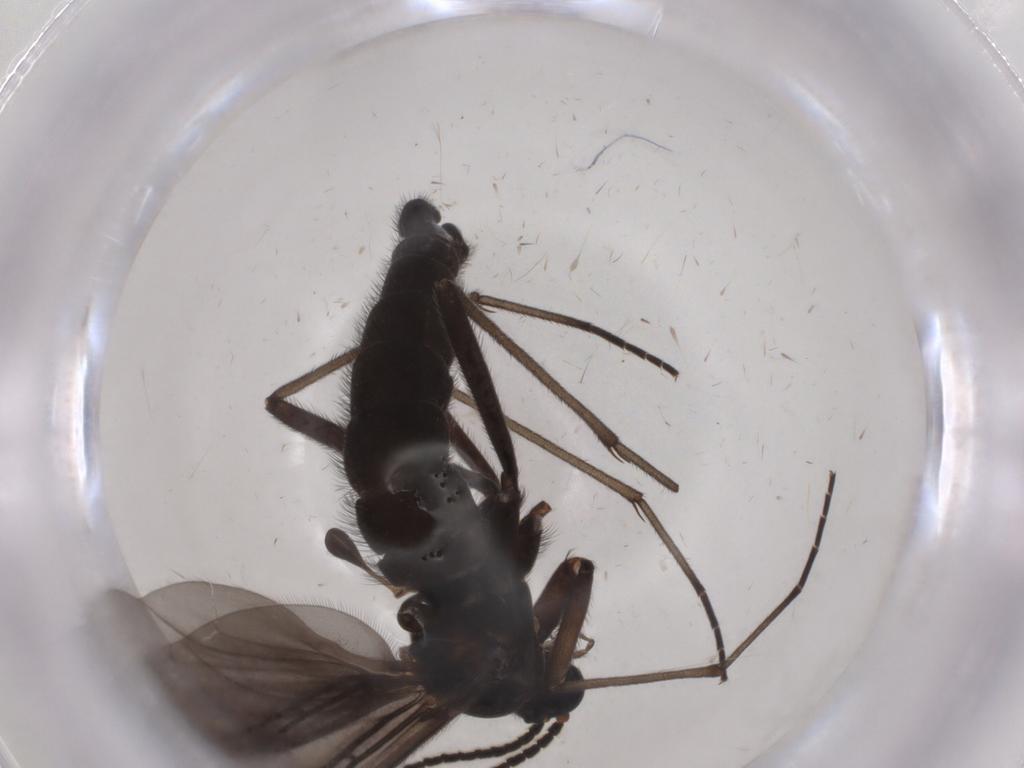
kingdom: Animalia
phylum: Arthropoda
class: Insecta
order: Diptera
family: Sciaridae
